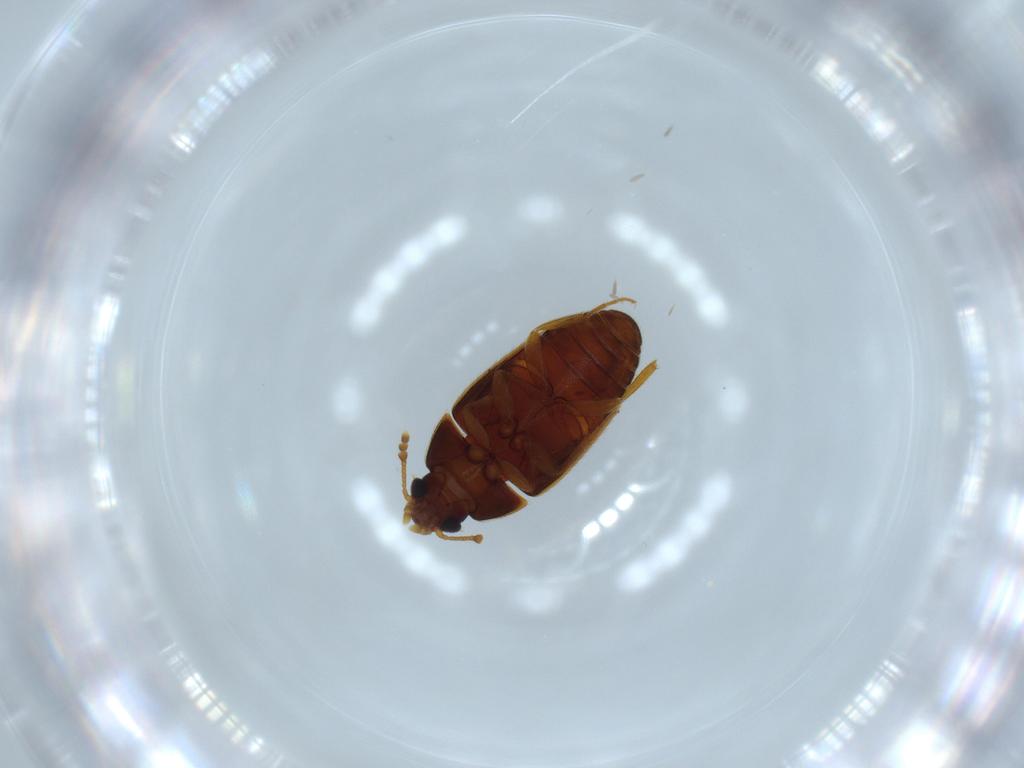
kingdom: Animalia
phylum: Arthropoda
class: Insecta
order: Coleoptera
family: Mycetophagidae
